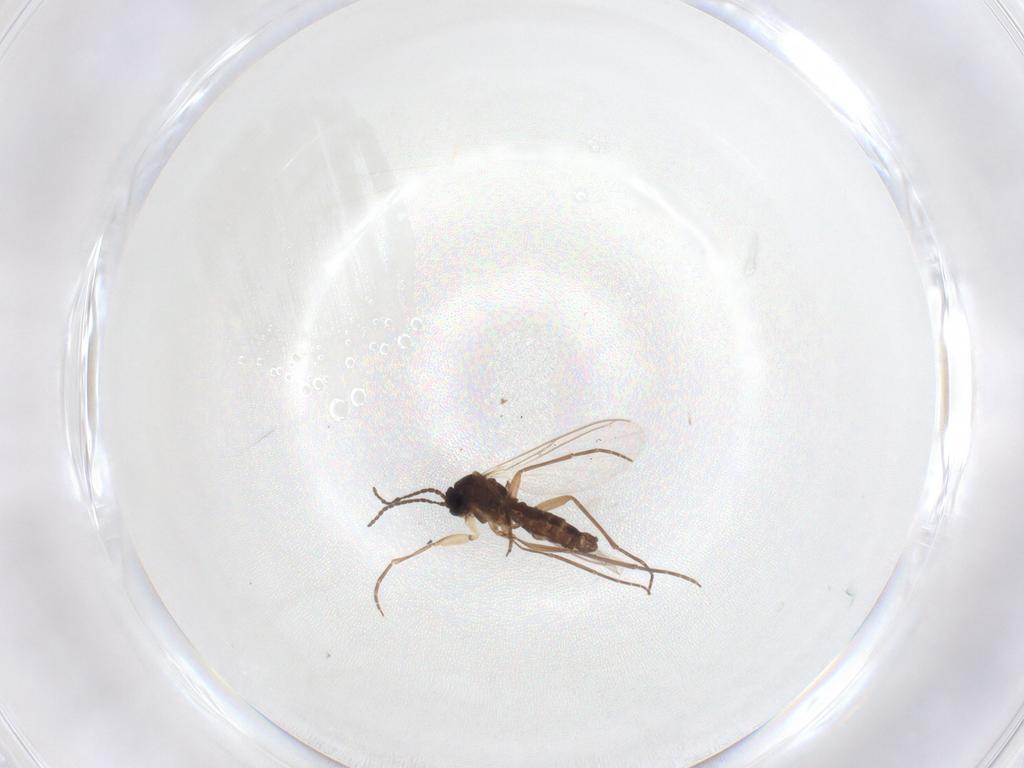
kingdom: Animalia
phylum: Arthropoda
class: Insecta
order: Diptera
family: Sciaridae
